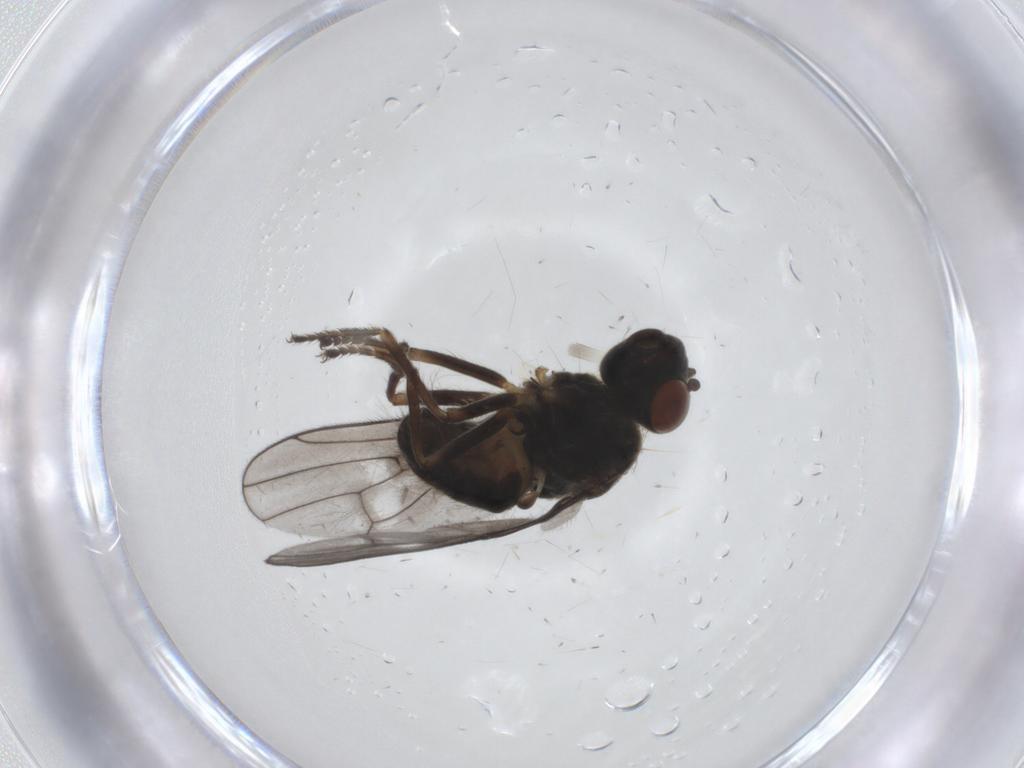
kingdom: Animalia
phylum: Arthropoda
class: Insecta
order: Diptera
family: Ephydridae
